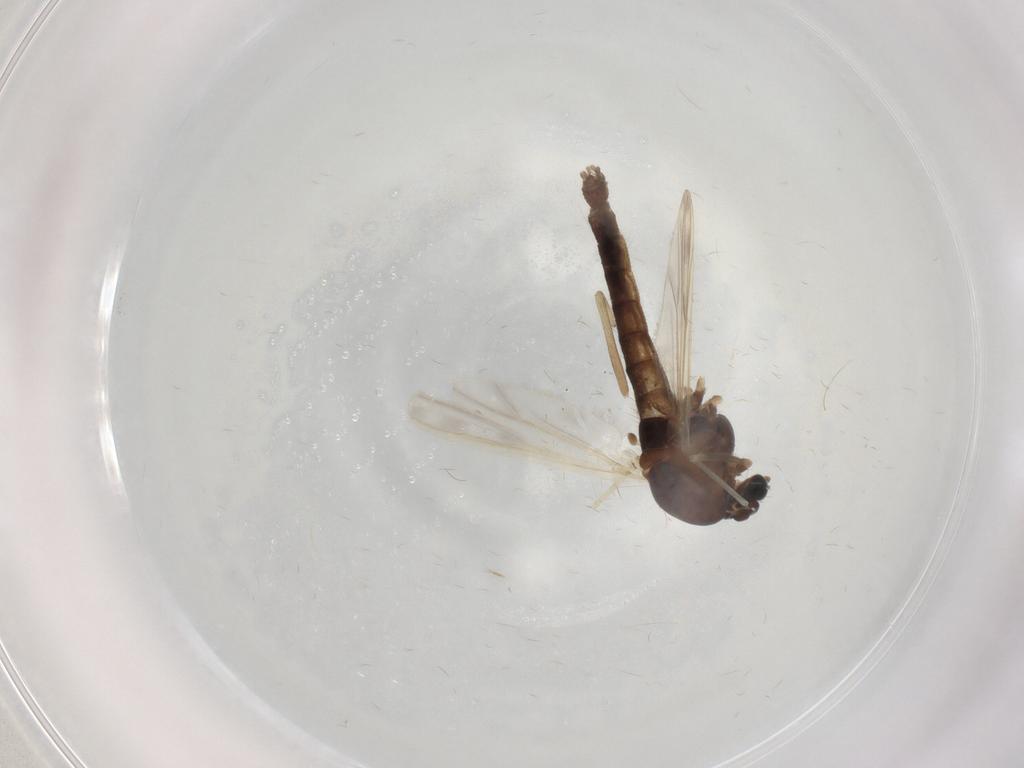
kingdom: Animalia
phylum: Arthropoda
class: Insecta
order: Diptera
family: Chironomidae
